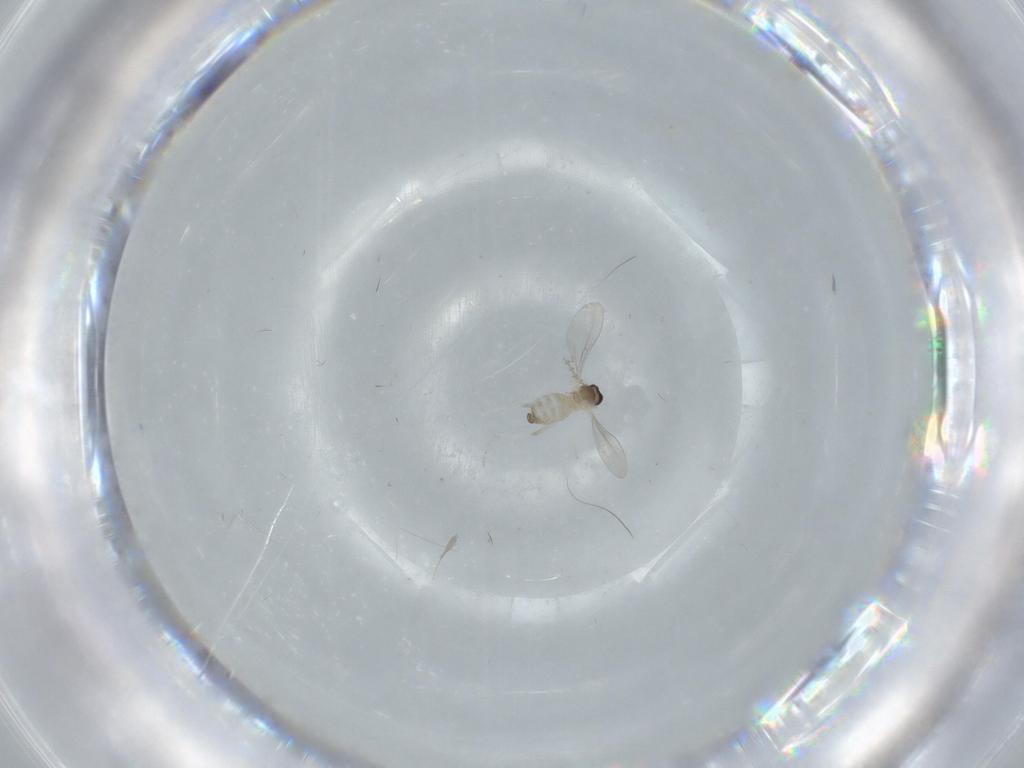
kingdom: Animalia
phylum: Arthropoda
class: Insecta
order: Diptera
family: Cecidomyiidae
